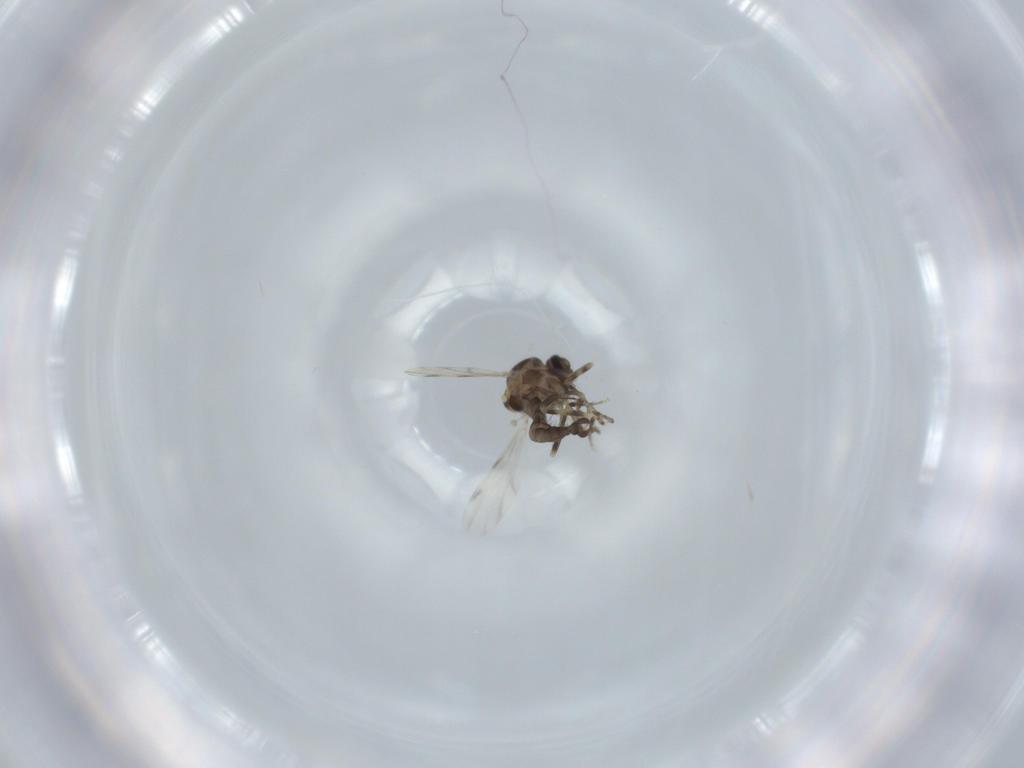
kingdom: Animalia
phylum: Arthropoda
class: Insecta
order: Diptera
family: Ceratopogonidae
